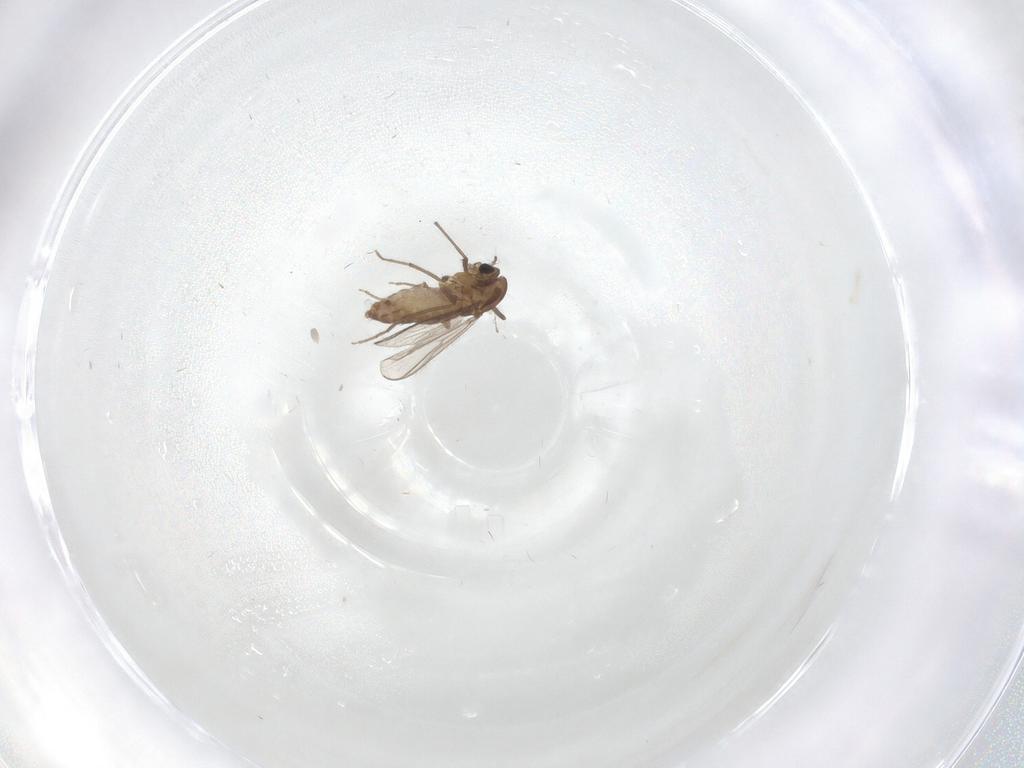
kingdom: Animalia
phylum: Arthropoda
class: Insecta
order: Diptera
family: Chironomidae
